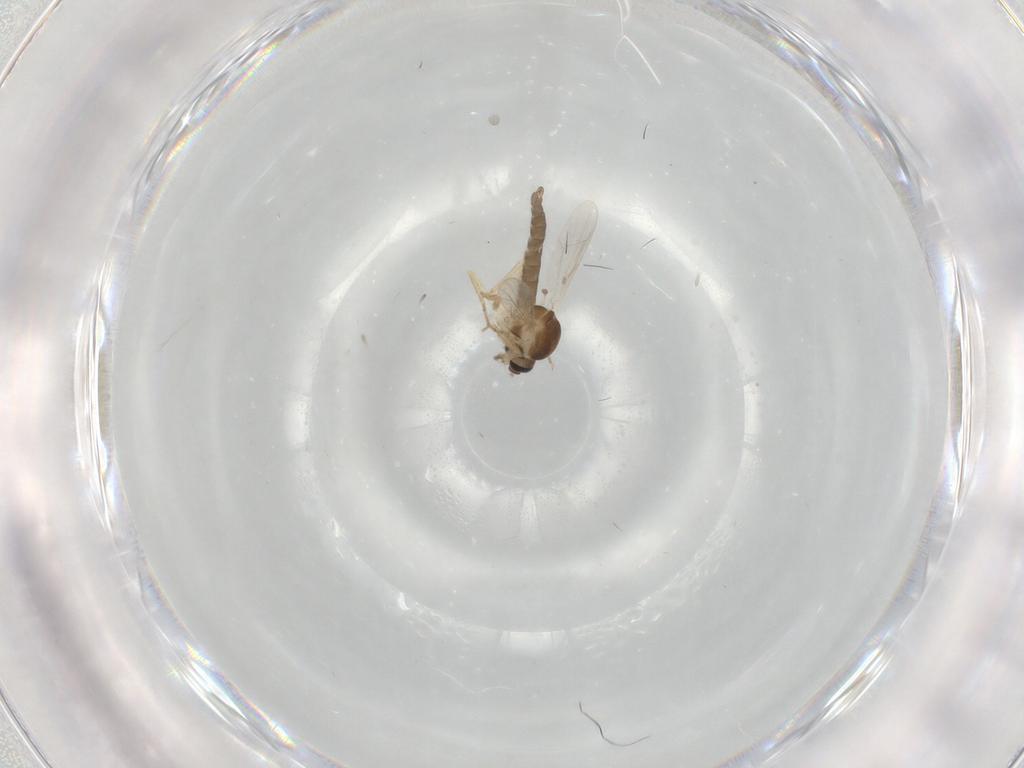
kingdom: Animalia
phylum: Arthropoda
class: Insecta
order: Diptera
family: Ceratopogonidae
